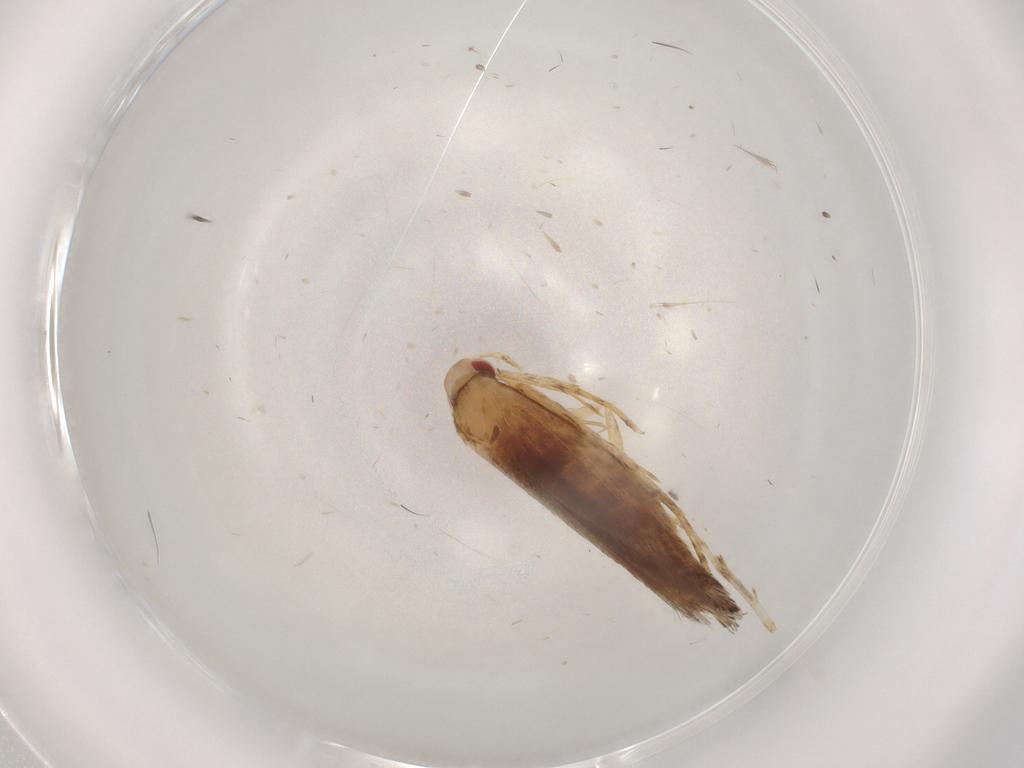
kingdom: Animalia
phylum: Arthropoda
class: Insecta
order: Lepidoptera
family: Cosmopterigidae
